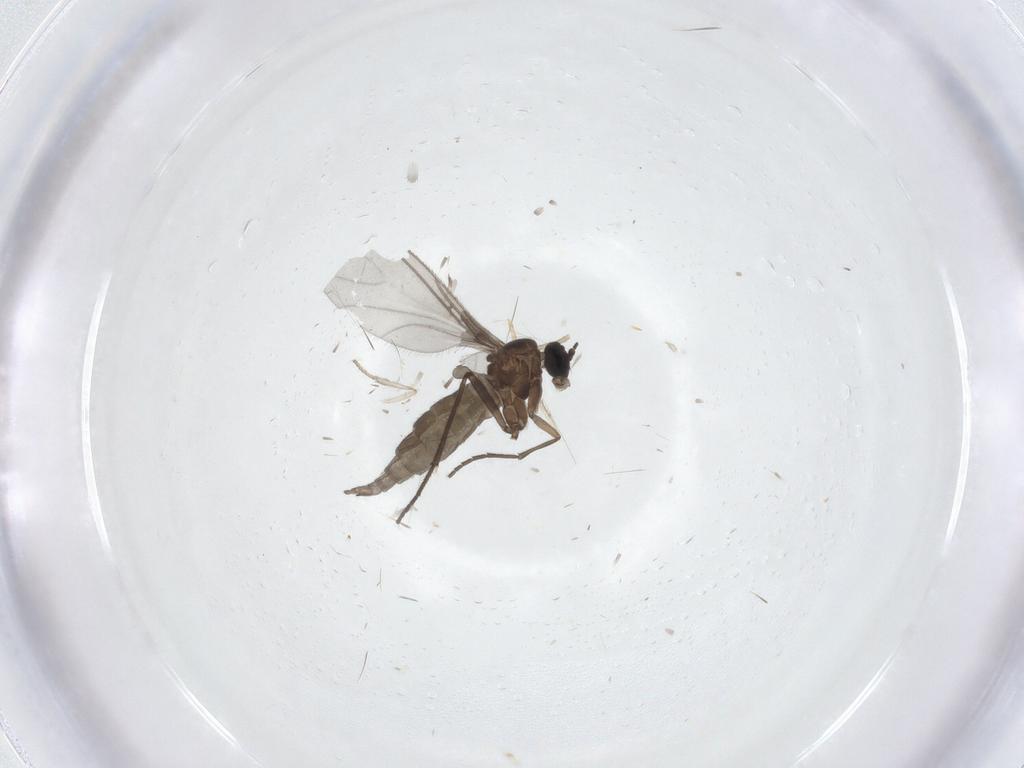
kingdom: Animalia
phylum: Arthropoda
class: Insecta
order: Diptera
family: Sciaridae
